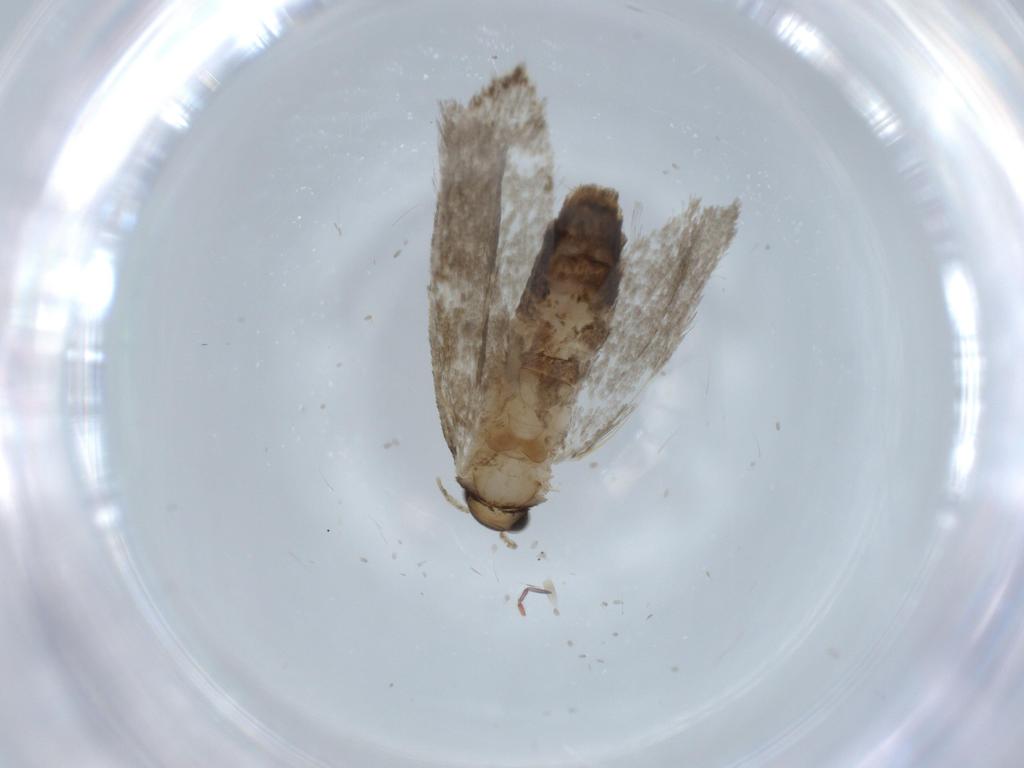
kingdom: Animalia
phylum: Arthropoda
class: Insecta
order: Lepidoptera
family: Tineidae
